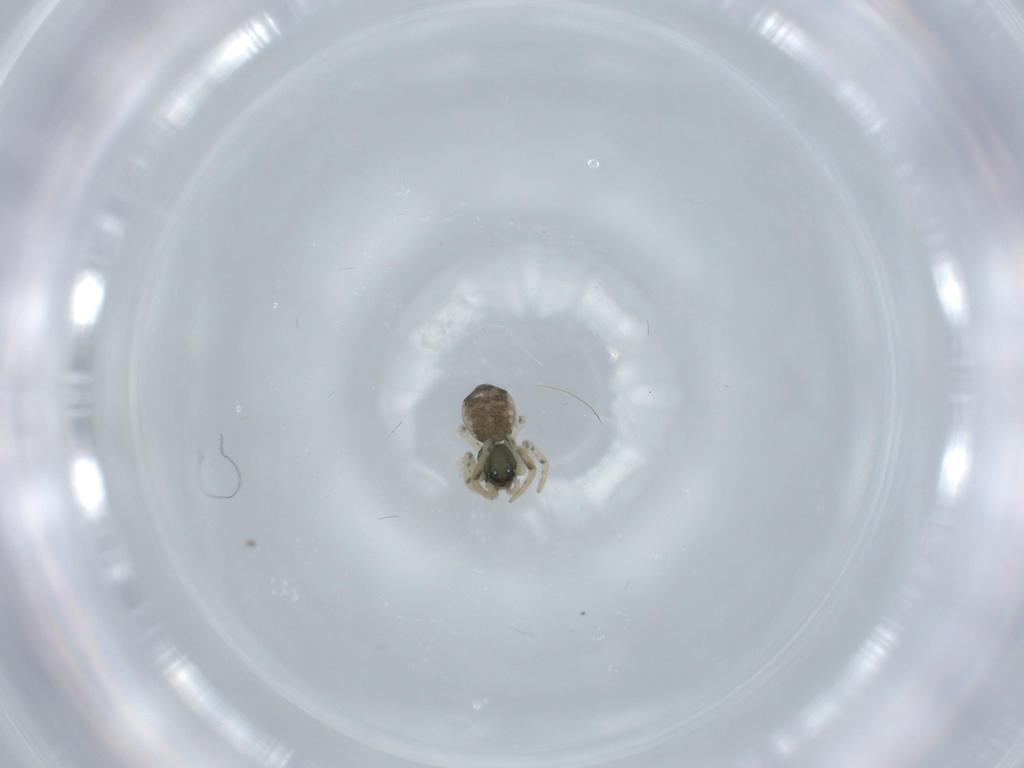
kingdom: Animalia
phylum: Arthropoda
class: Arachnida
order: Araneae
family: Theridiidae
